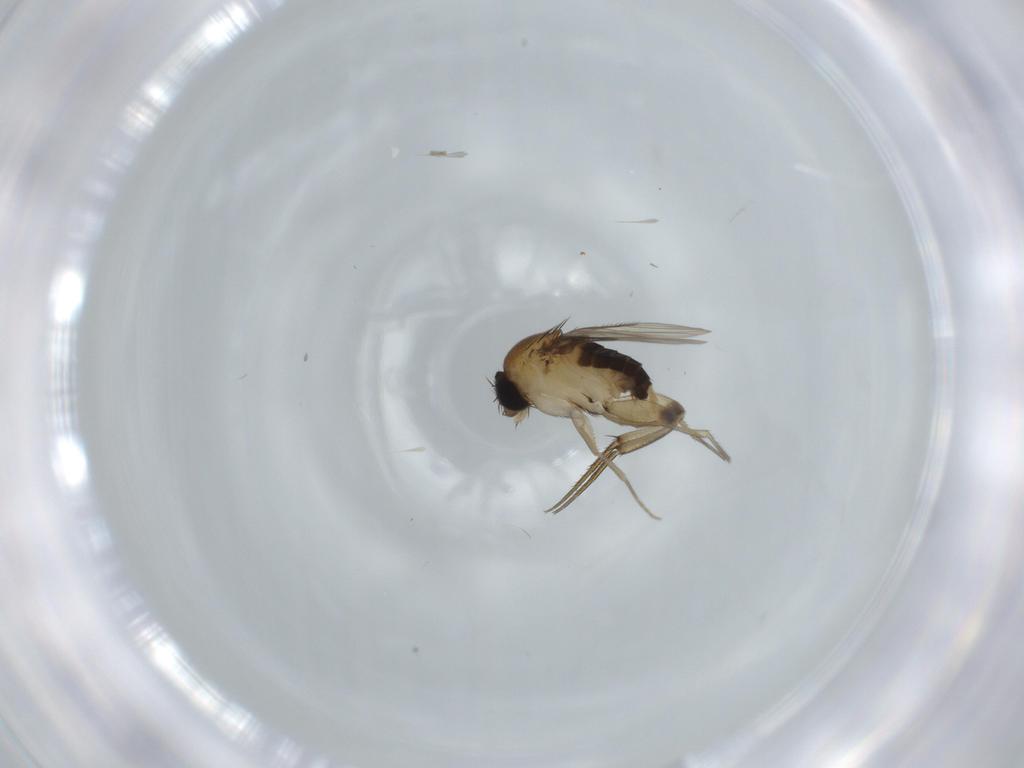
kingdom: Animalia
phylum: Arthropoda
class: Insecta
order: Diptera
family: Phoridae
